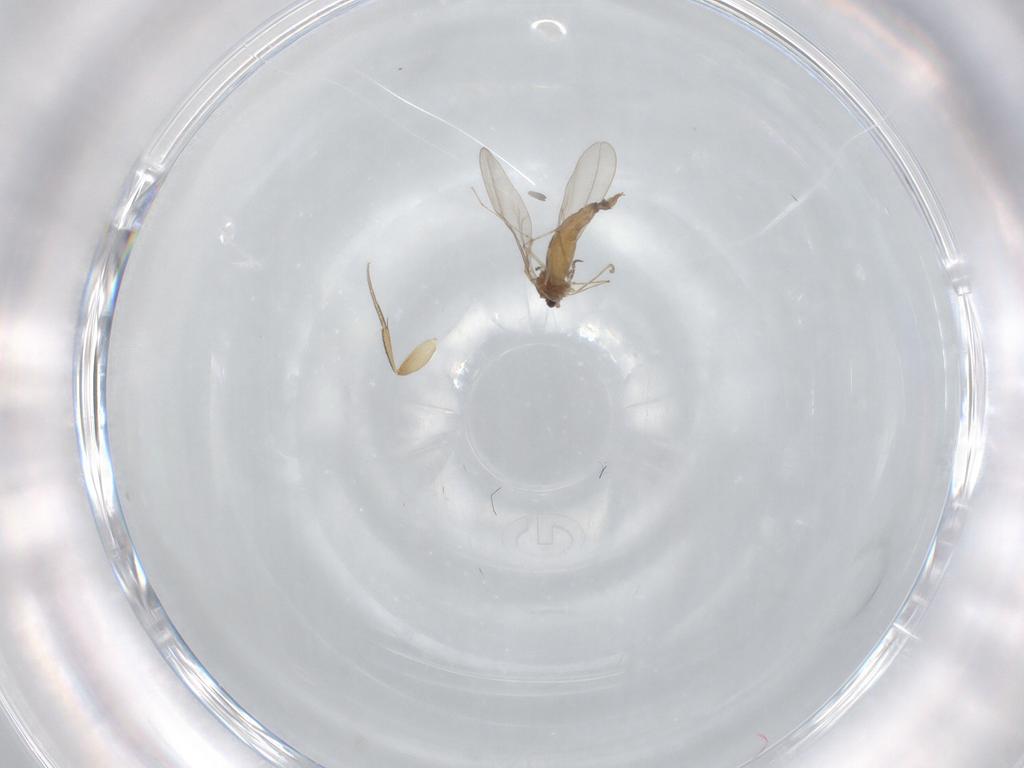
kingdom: Animalia
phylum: Arthropoda
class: Insecta
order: Diptera
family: Cecidomyiidae
